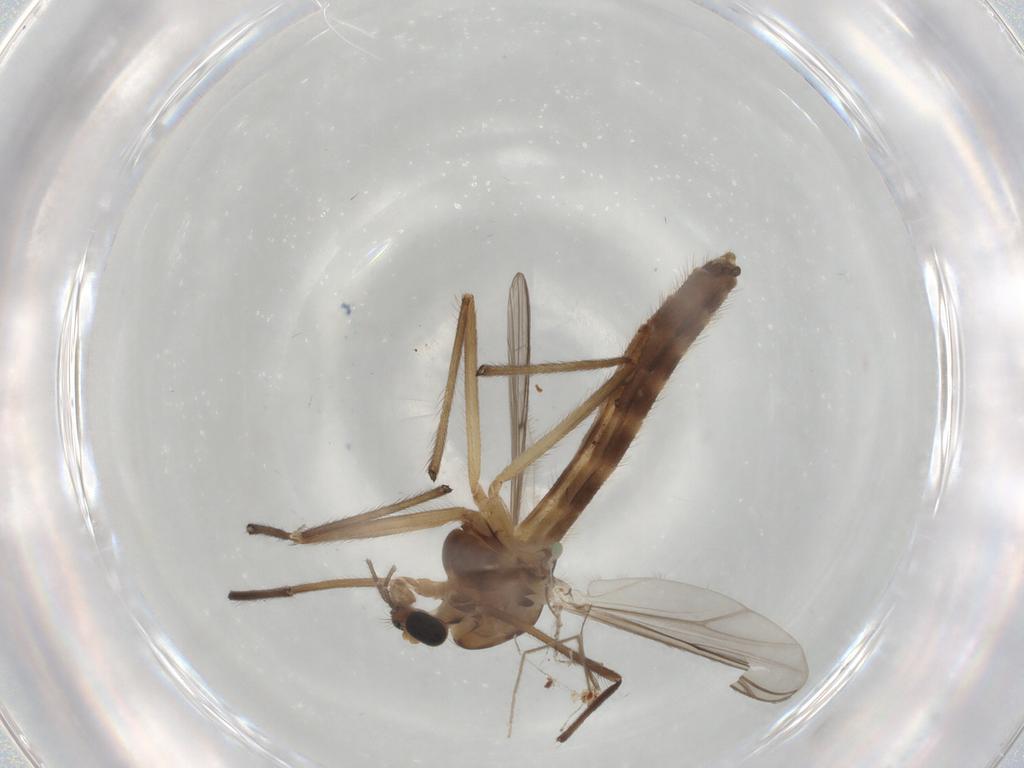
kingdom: Animalia
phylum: Arthropoda
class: Insecta
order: Diptera
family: Chironomidae
